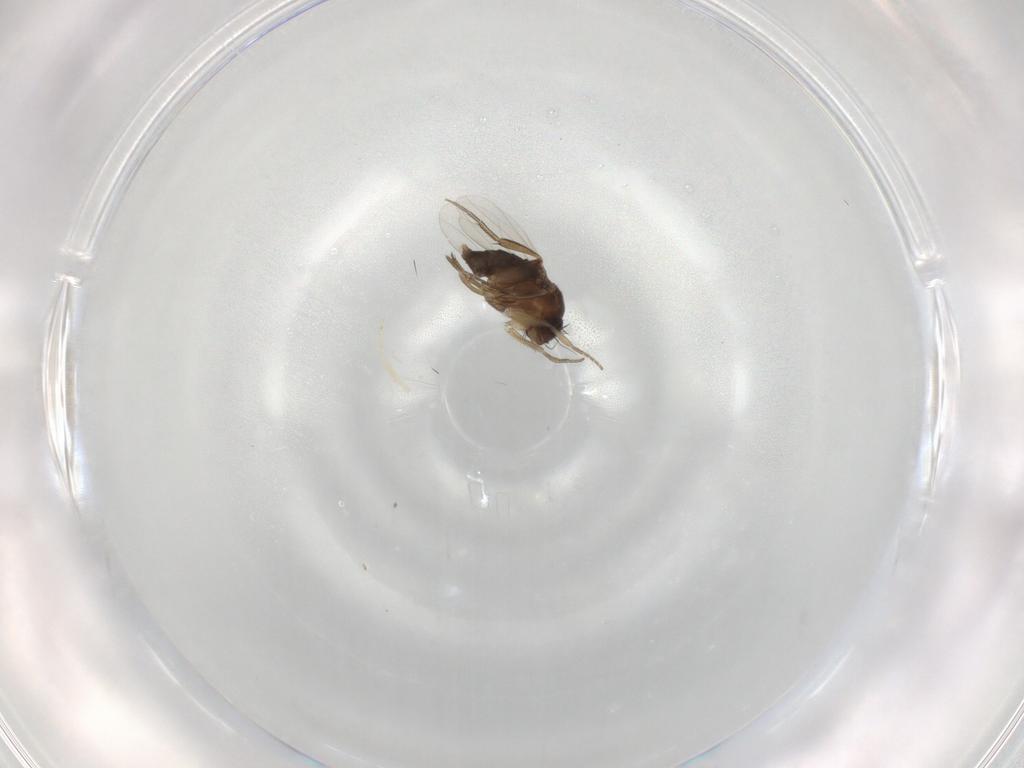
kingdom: Animalia
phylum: Arthropoda
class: Insecta
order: Diptera
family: Phoridae
